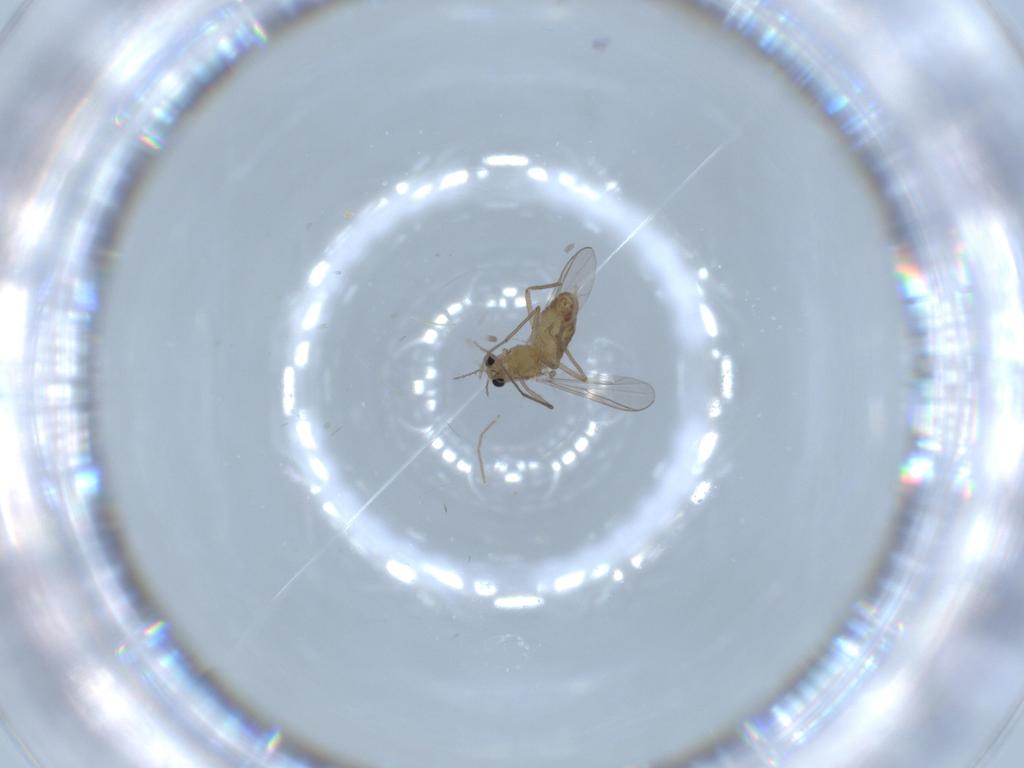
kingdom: Animalia
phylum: Arthropoda
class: Insecta
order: Diptera
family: Chironomidae
